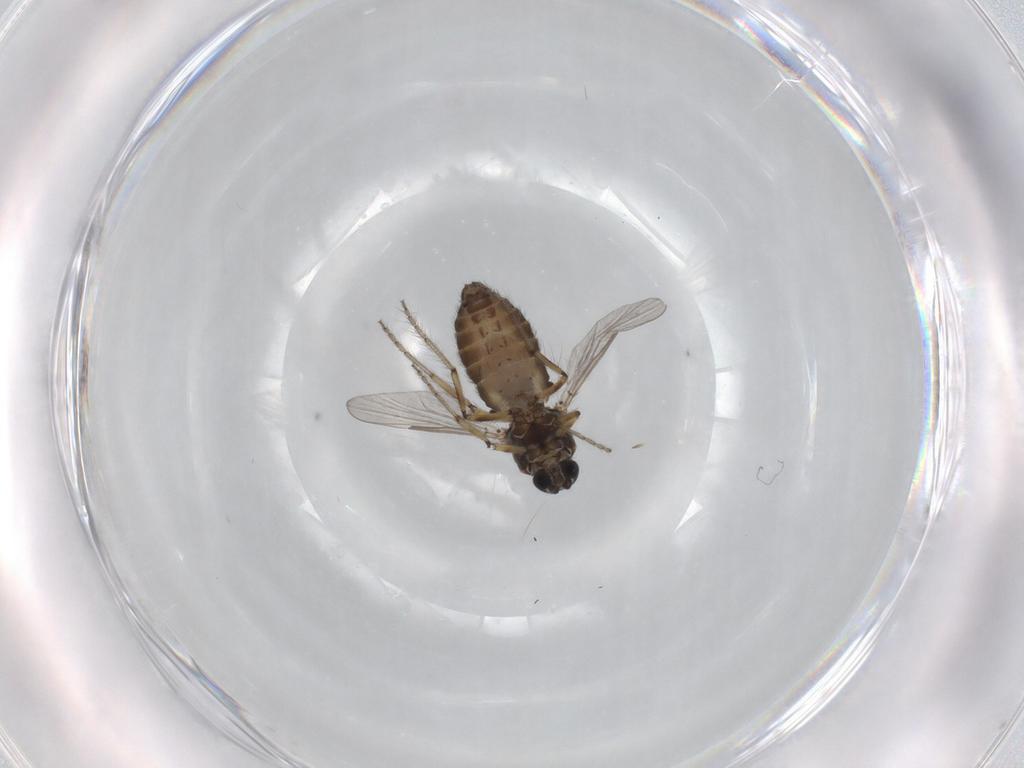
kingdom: Animalia
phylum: Arthropoda
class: Insecta
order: Diptera
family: Ceratopogonidae
